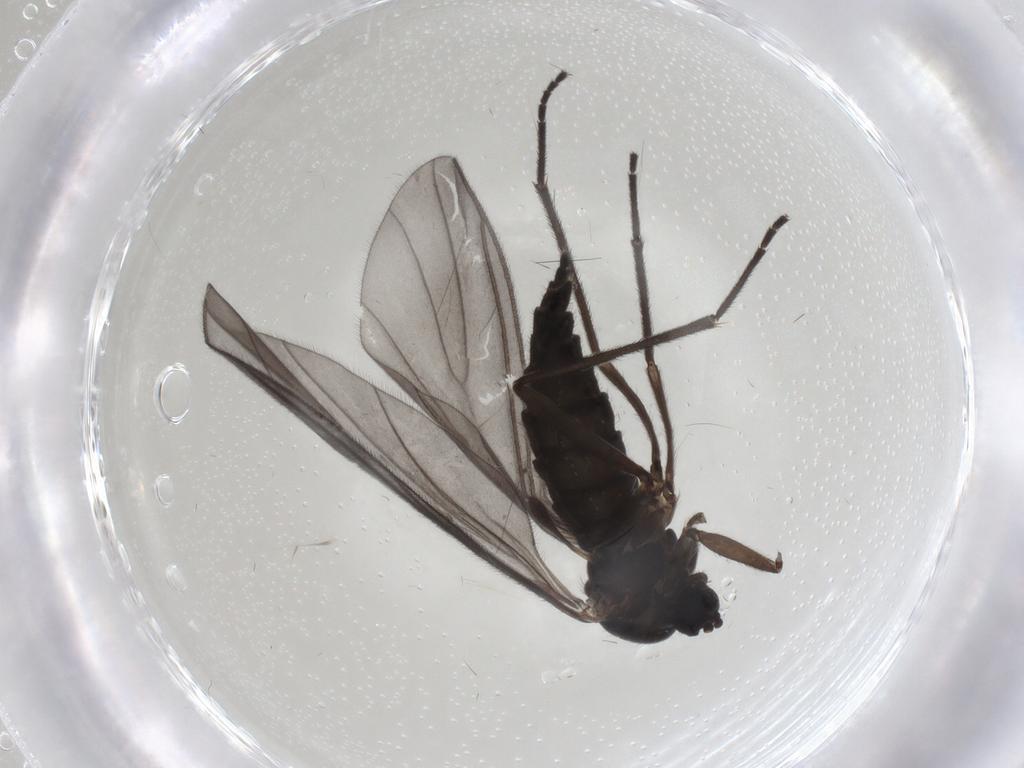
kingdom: Animalia
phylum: Arthropoda
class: Insecta
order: Diptera
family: Sciaridae
